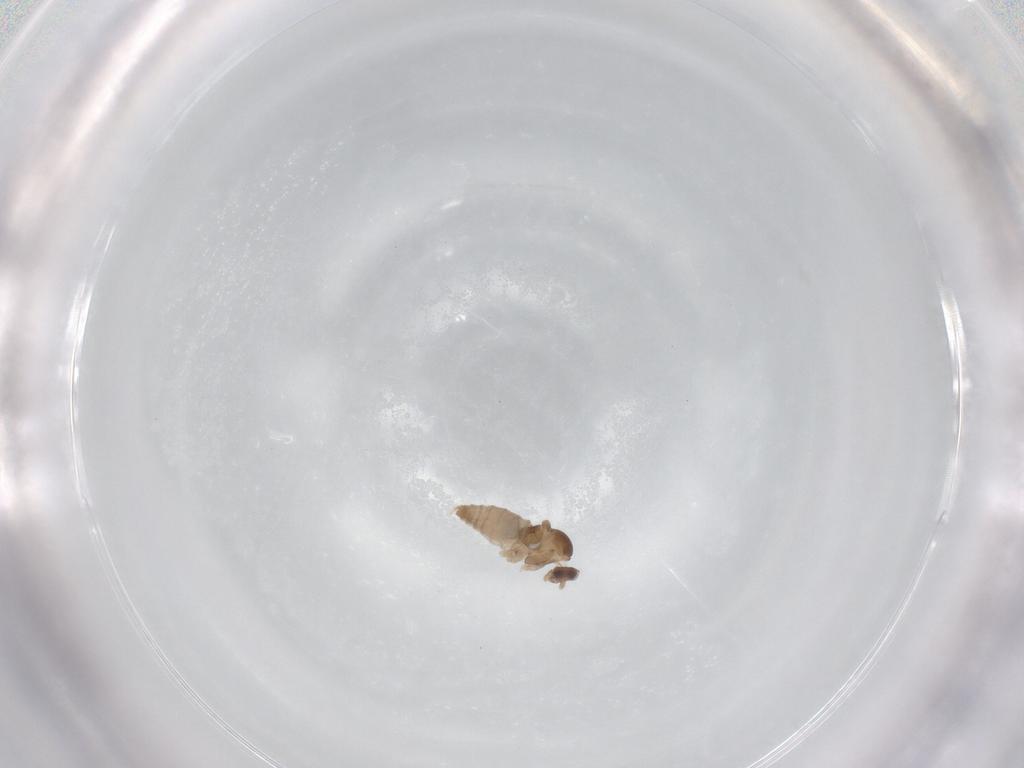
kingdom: Animalia
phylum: Arthropoda
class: Insecta
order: Diptera
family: Cecidomyiidae
